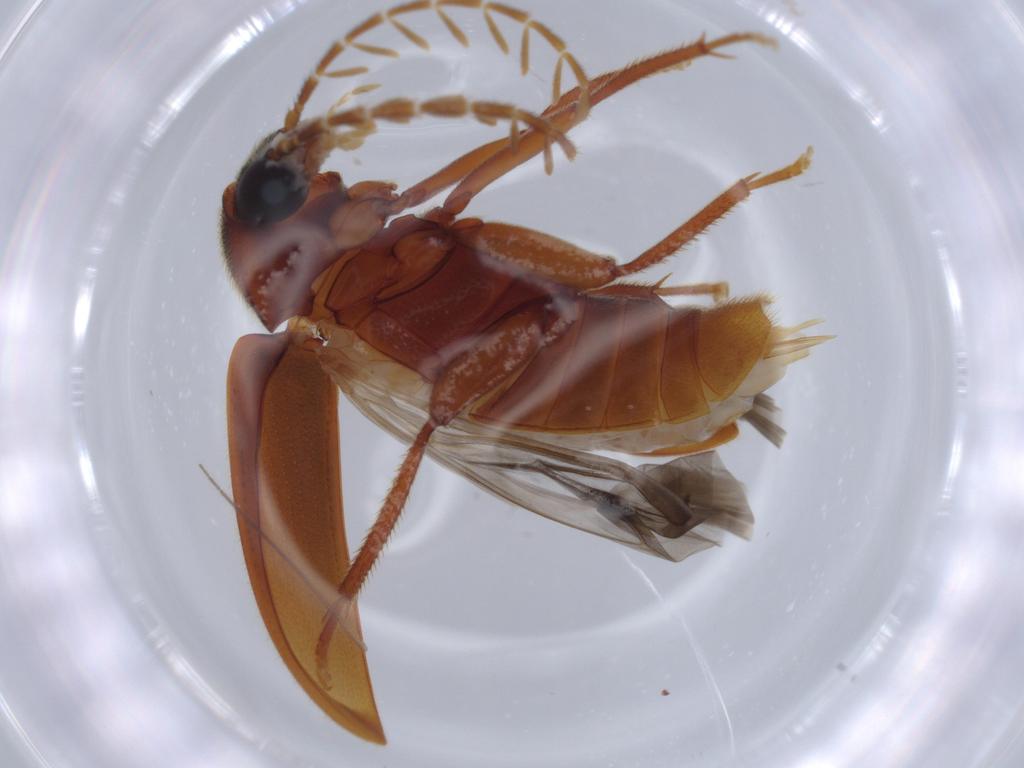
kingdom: Animalia
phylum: Arthropoda
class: Insecta
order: Coleoptera
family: Ptilodactylidae
